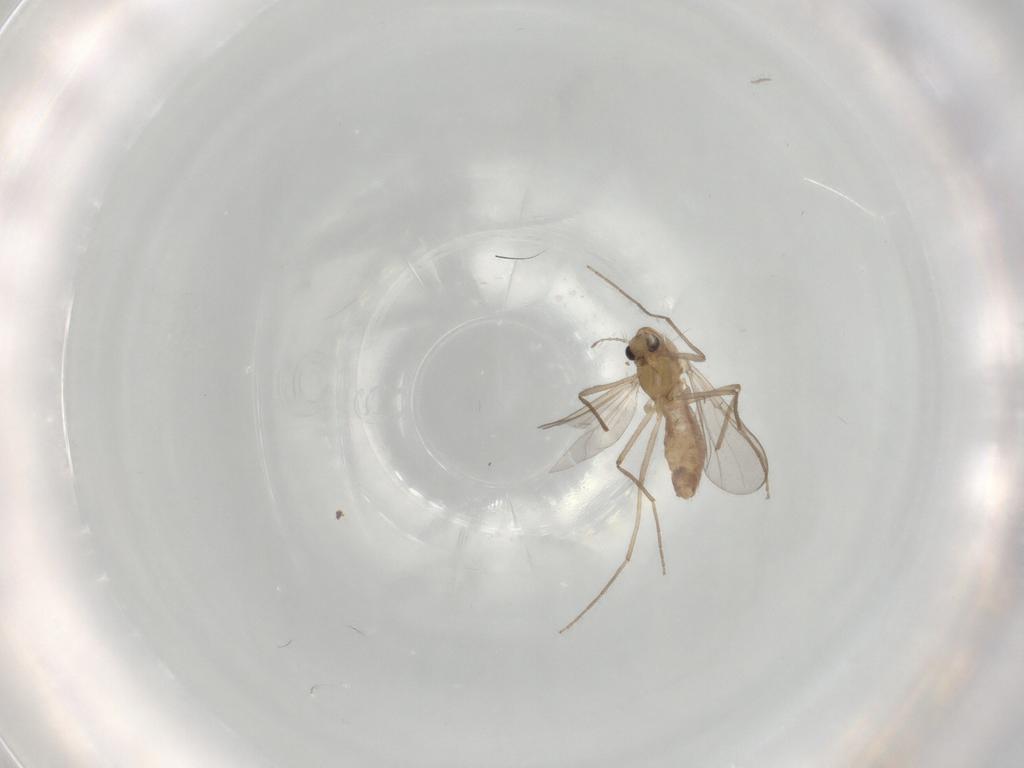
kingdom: Animalia
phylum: Arthropoda
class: Insecta
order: Diptera
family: Chironomidae
